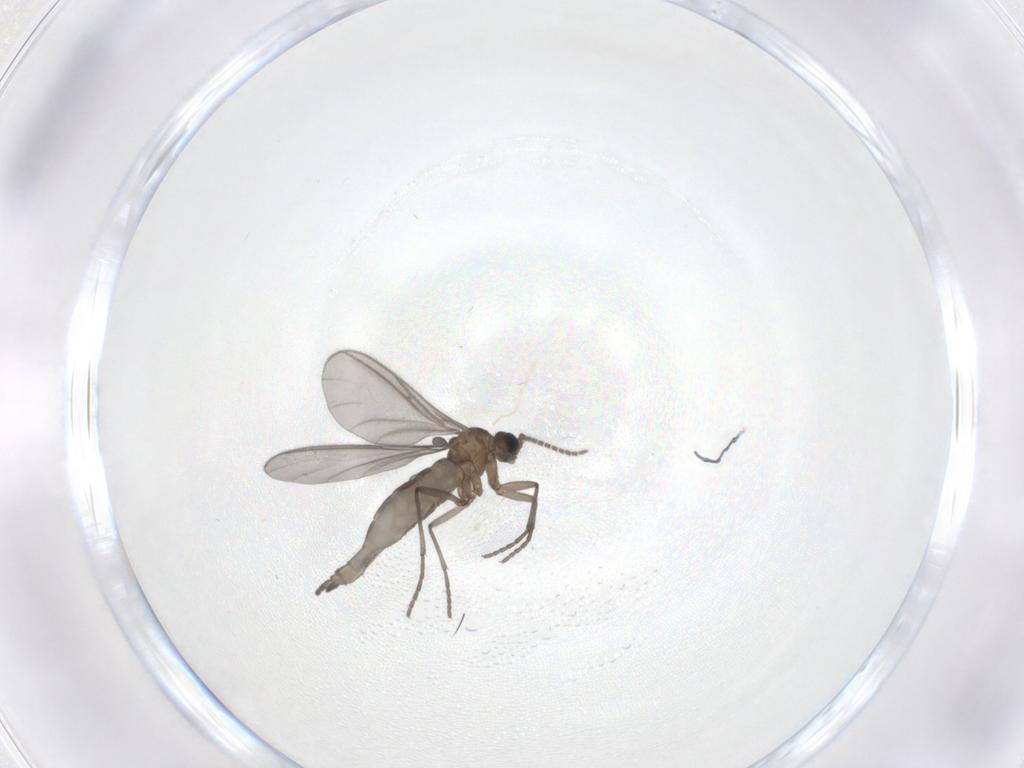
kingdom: Animalia
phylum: Arthropoda
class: Insecta
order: Diptera
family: Sciaridae
